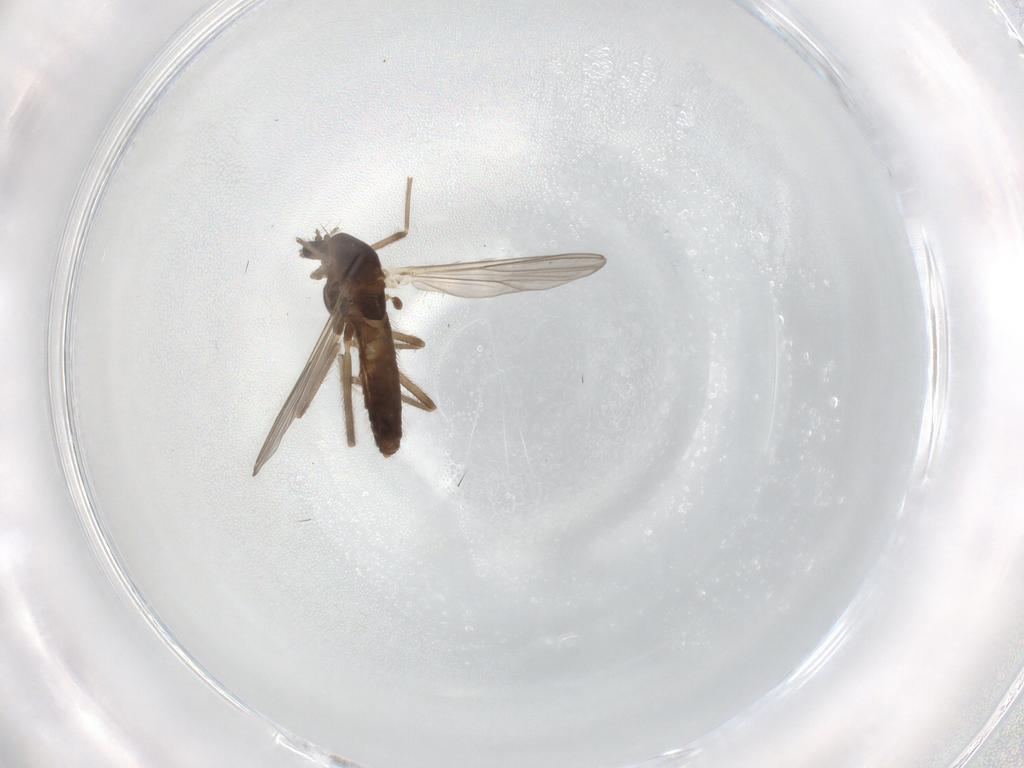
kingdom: Animalia
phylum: Arthropoda
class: Insecta
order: Diptera
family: Chironomidae
